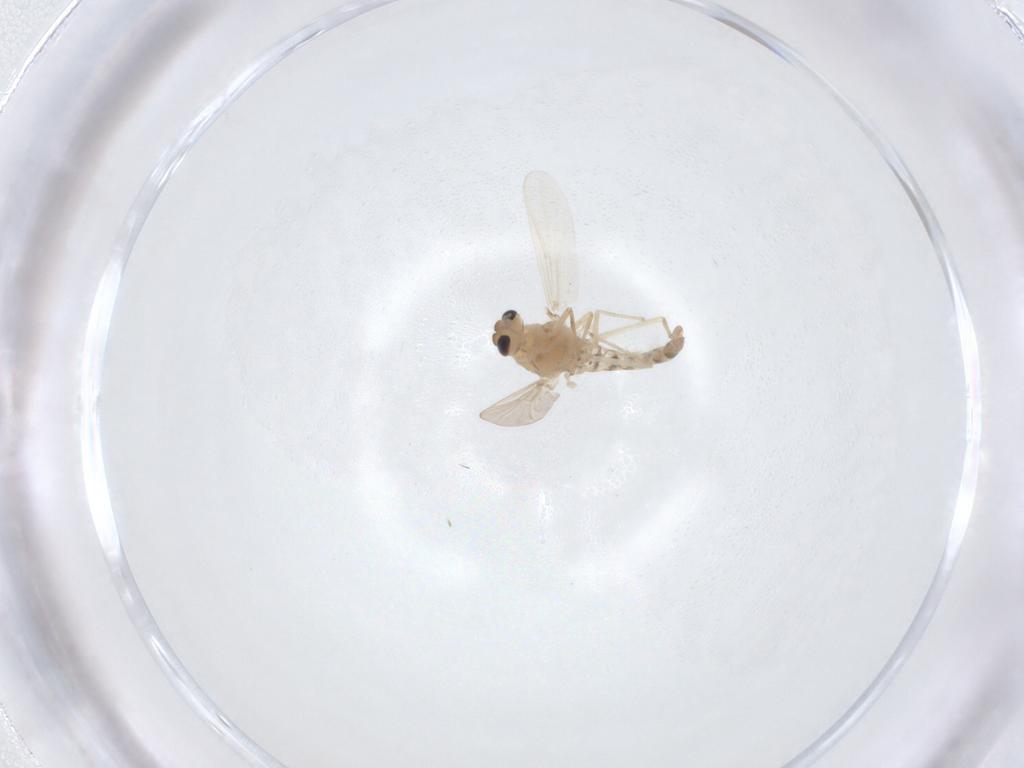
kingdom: Animalia
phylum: Arthropoda
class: Insecta
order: Diptera
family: Chironomidae
